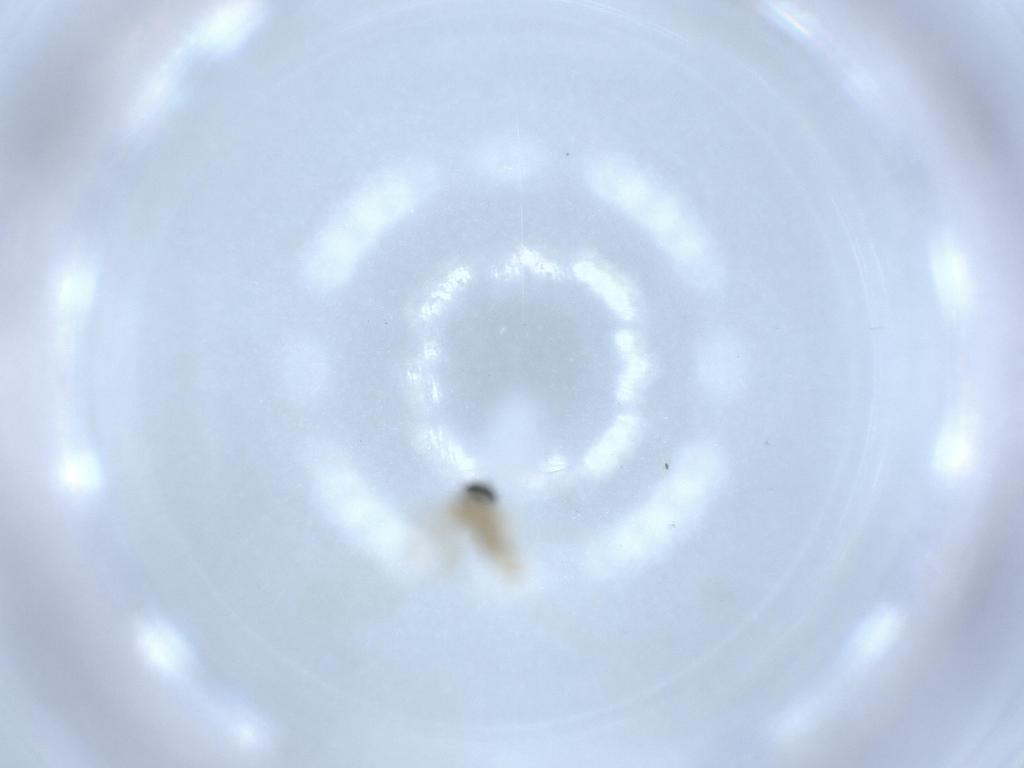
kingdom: Animalia
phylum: Arthropoda
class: Insecta
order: Diptera
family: Cecidomyiidae
